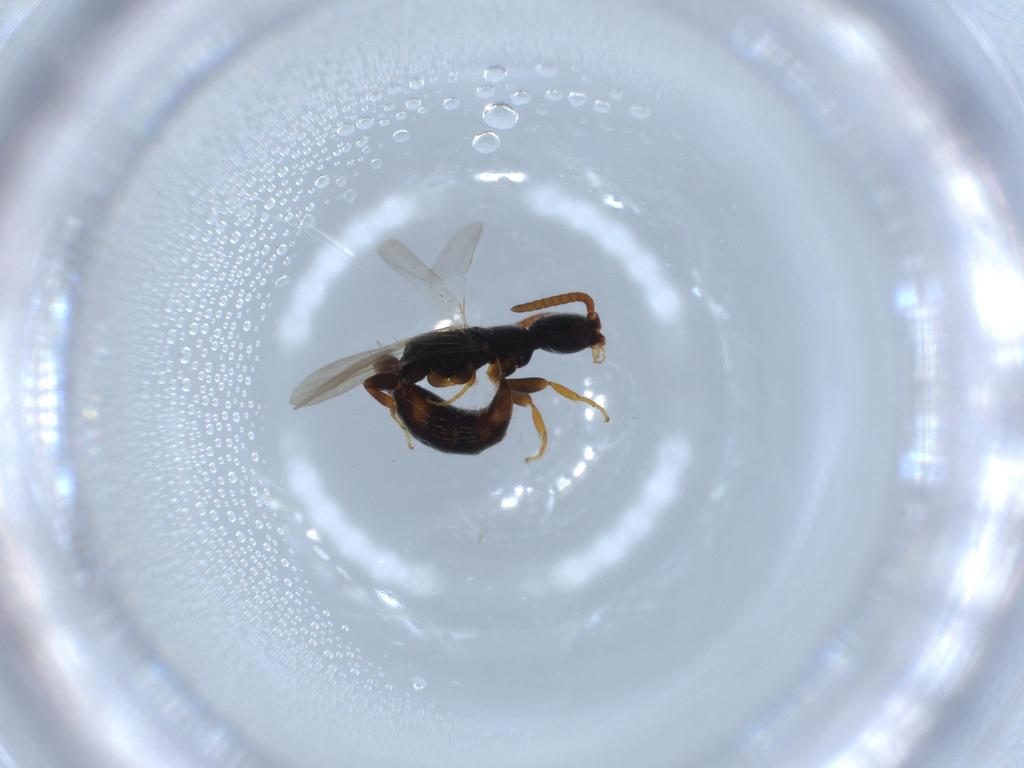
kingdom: Animalia
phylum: Arthropoda
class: Insecta
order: Hymenoptera
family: Bethylidae
